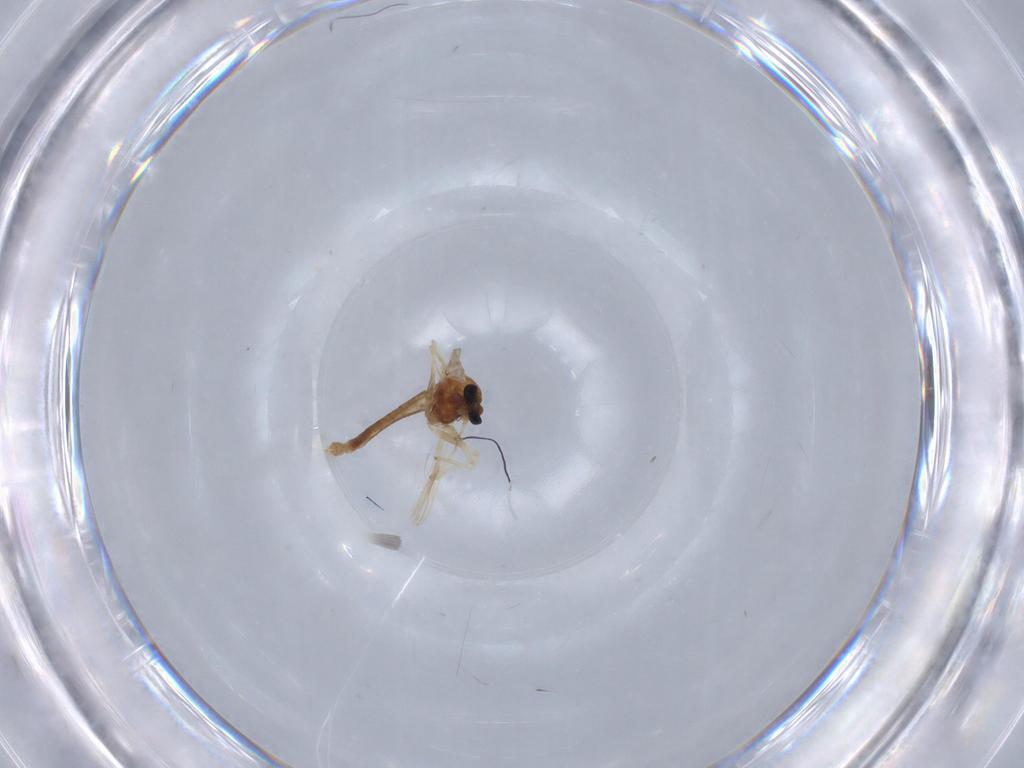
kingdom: Animalia
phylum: Arthropoda
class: Insecta
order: Diptera
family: Chironomidae
